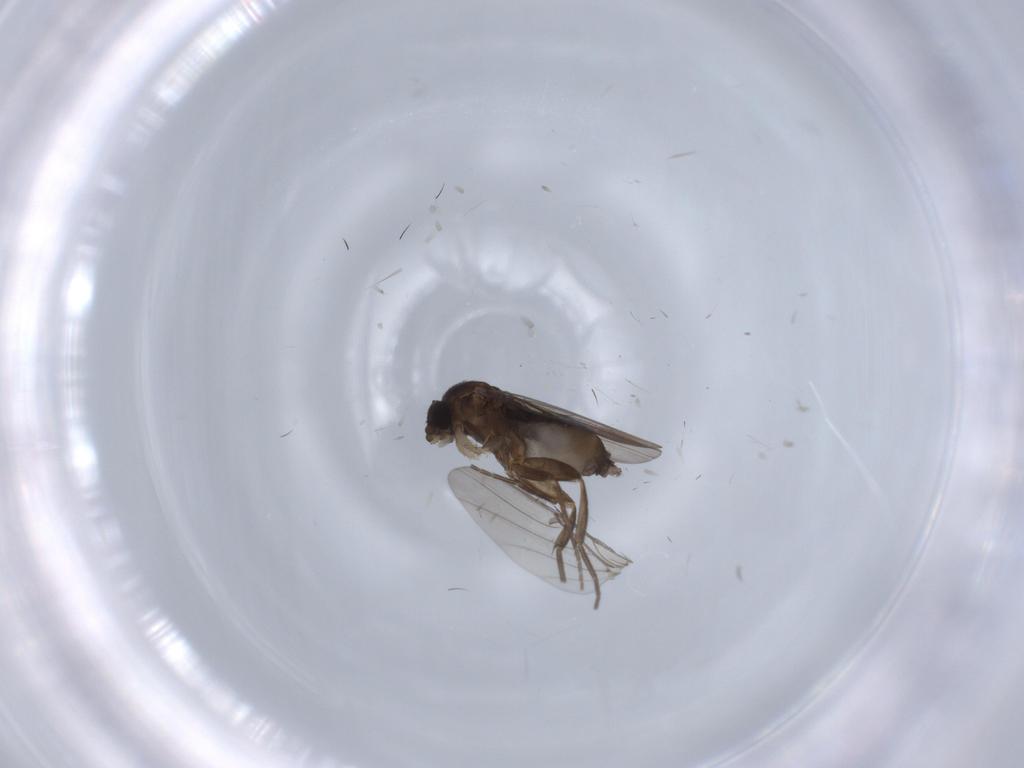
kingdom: Animalia
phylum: Arthropoda
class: Insecta
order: Diptera
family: Phoridae
